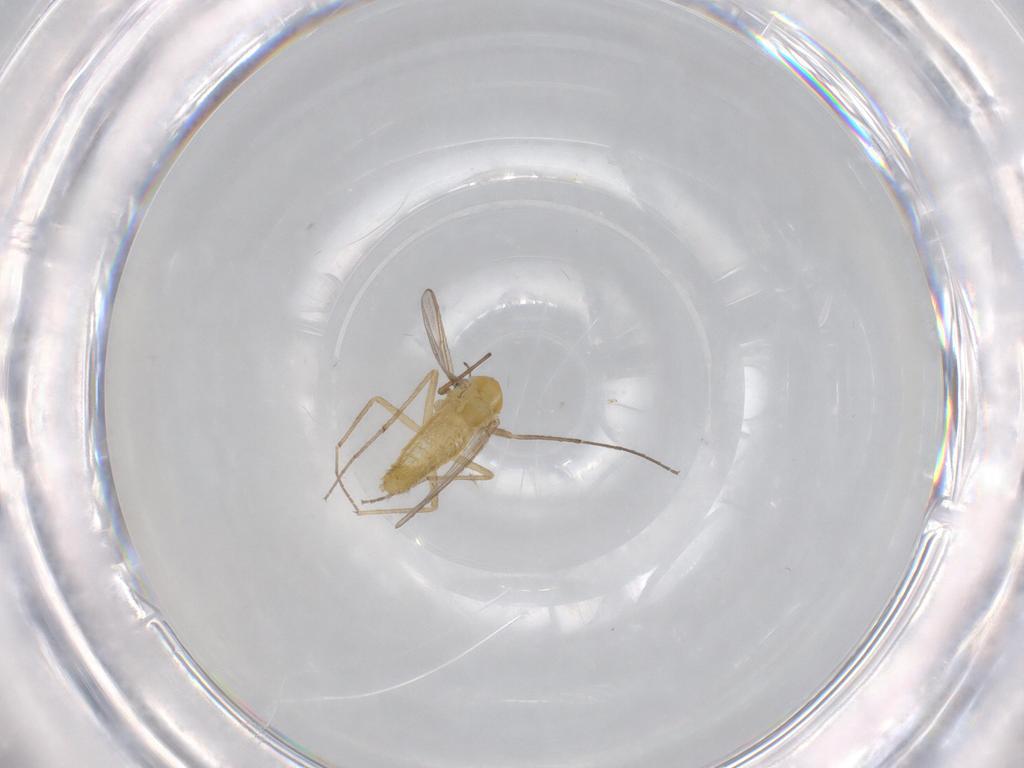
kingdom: Animalia
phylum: Arthropoda
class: Insecta
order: Diptera
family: Chironomidae
